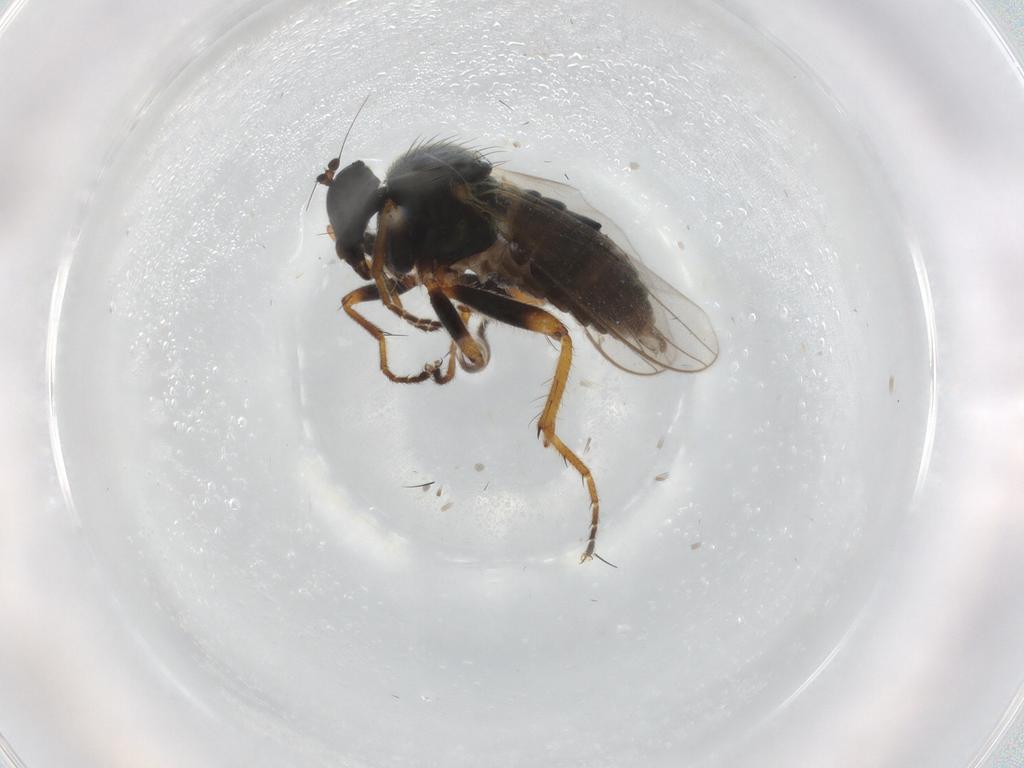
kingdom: Animalia
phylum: Arthropoda
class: Insecta
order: Diptera
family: Hybotidae
